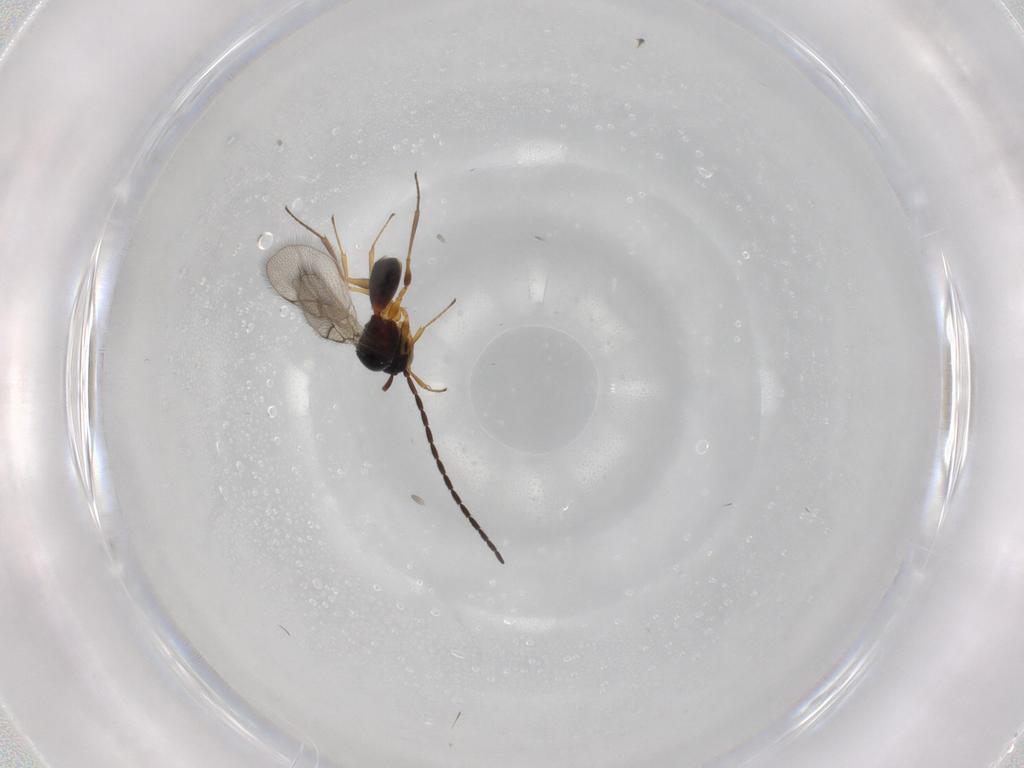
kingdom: Animalia
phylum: Arthropoda
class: Insecta
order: Hymenoptera
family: Figitidae
